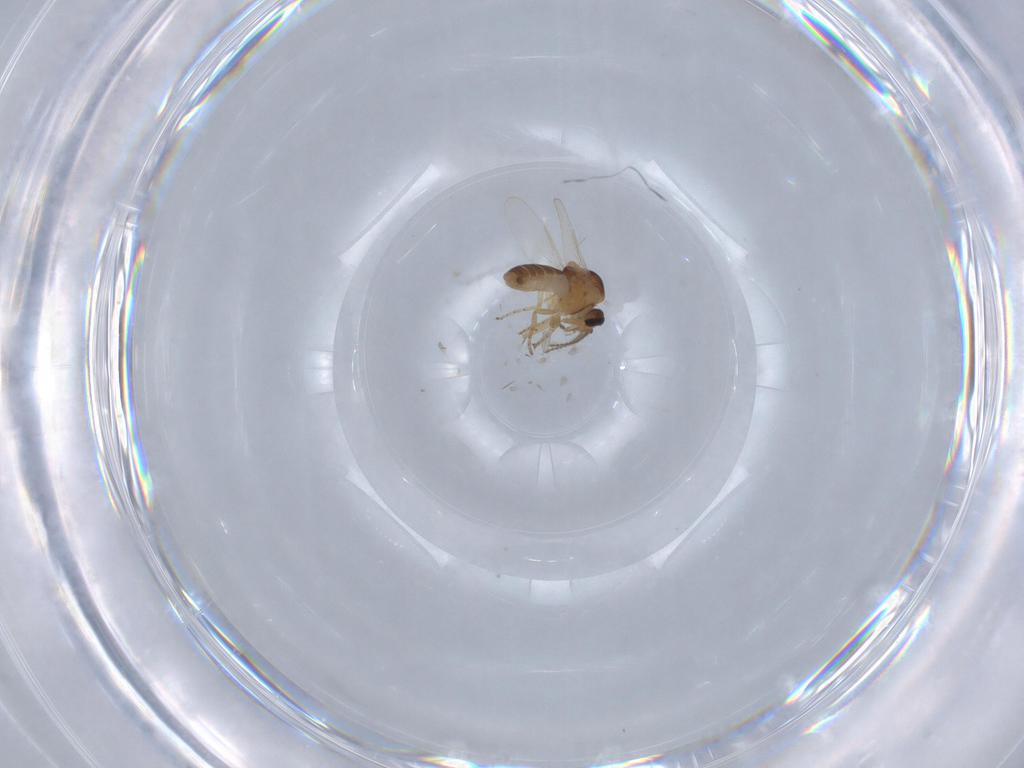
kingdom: Animalia
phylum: Arthropoda
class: Insecta
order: Diptera
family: Ceratopogonidae
